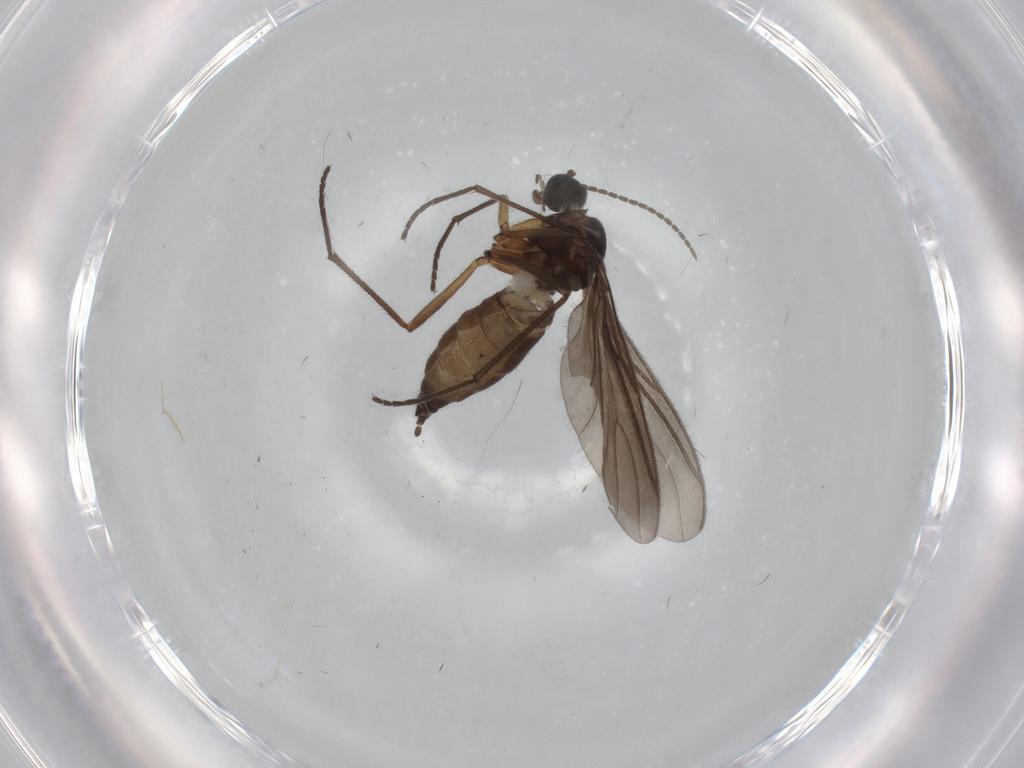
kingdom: Animalia
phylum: Arthropoda
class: Insecta
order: Diptera
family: Sciaridae
